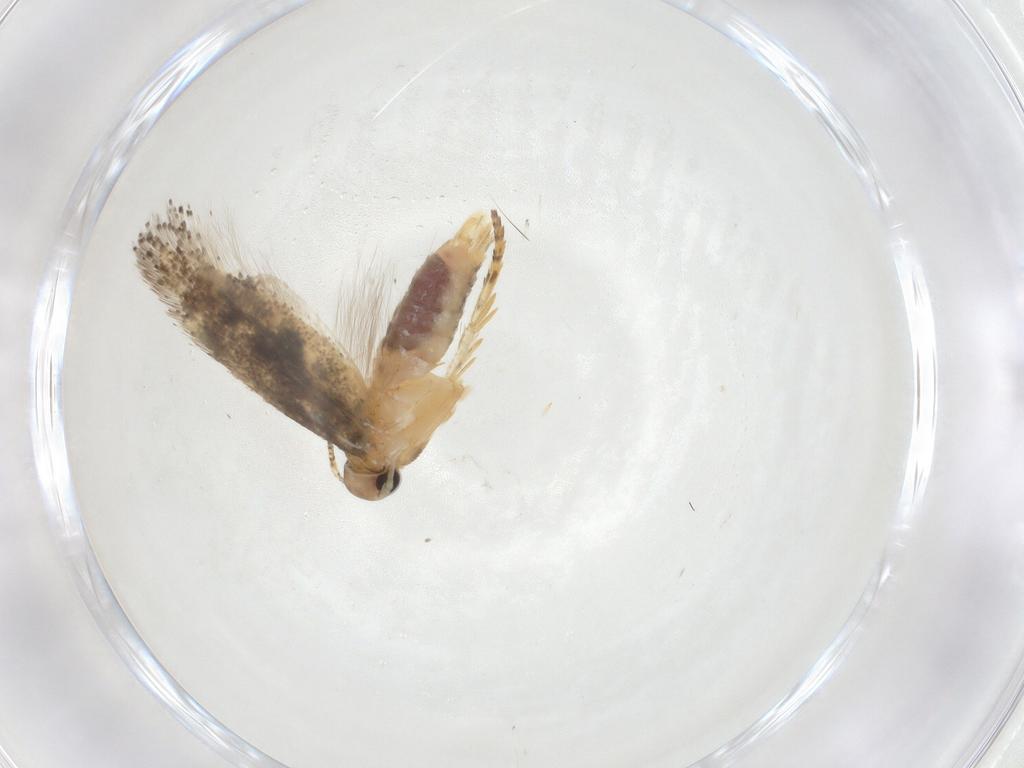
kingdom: Animalia
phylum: Arthropoda
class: Insecta
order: Lepidoptera
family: Gelechiidae
